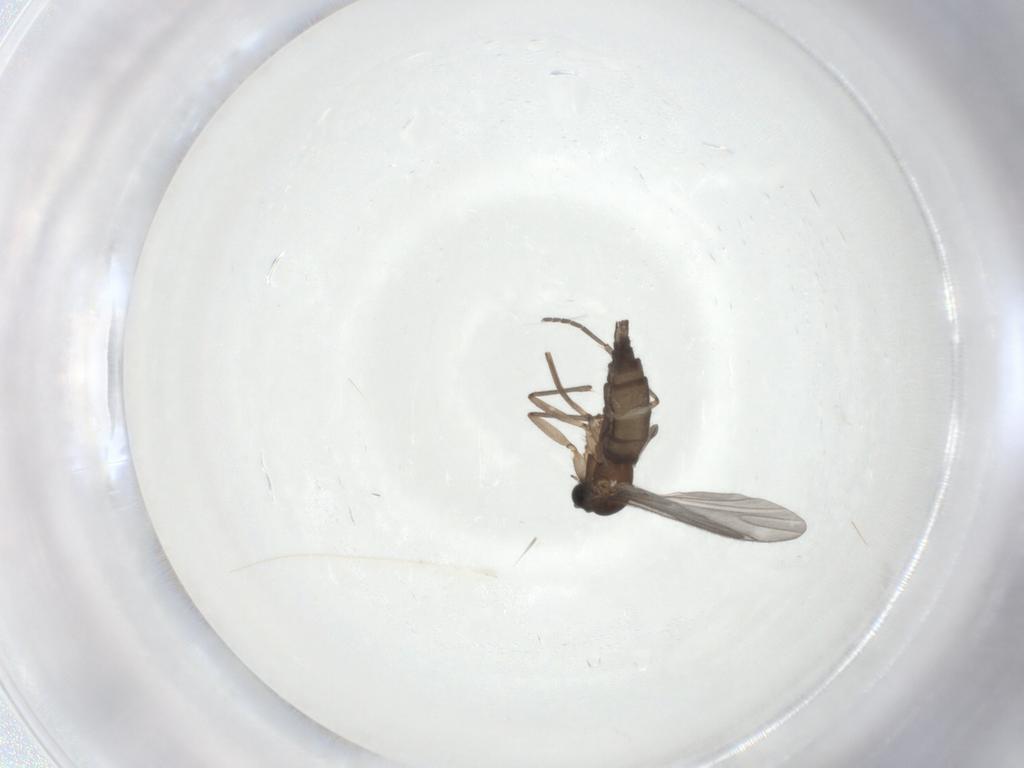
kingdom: Animalia
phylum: Arthropoda
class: Insecta
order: Diptera
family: Sciaridae
